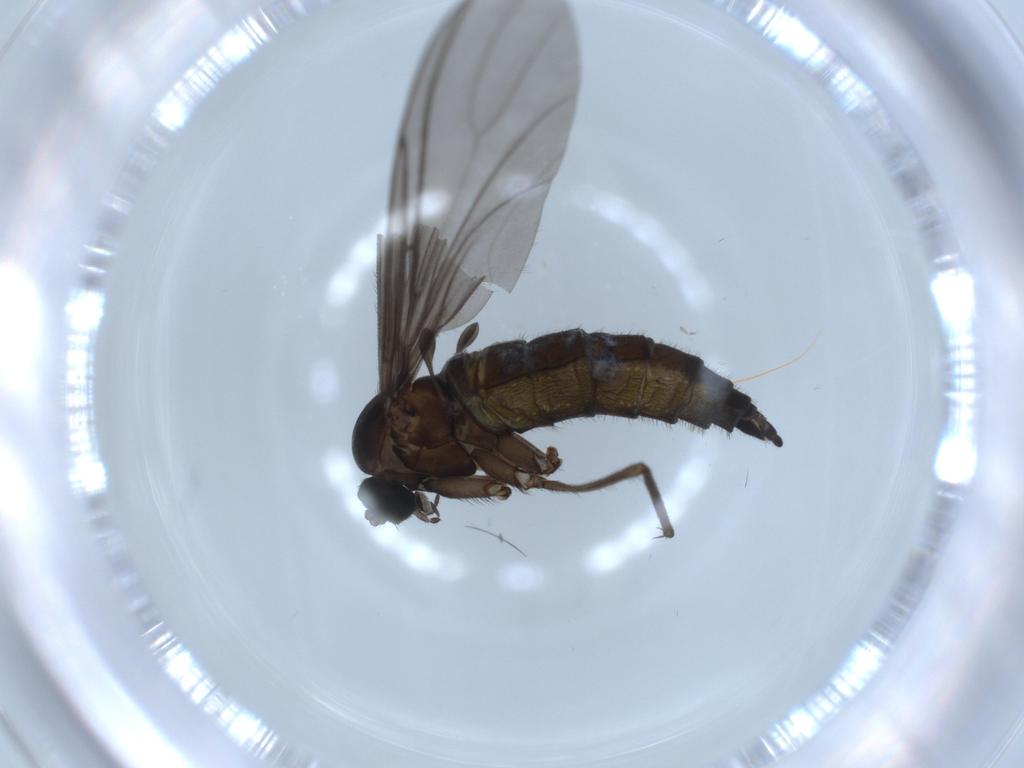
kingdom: Animalia
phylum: Arthropoda
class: Insecta
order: Diptera
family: Sciaridae
